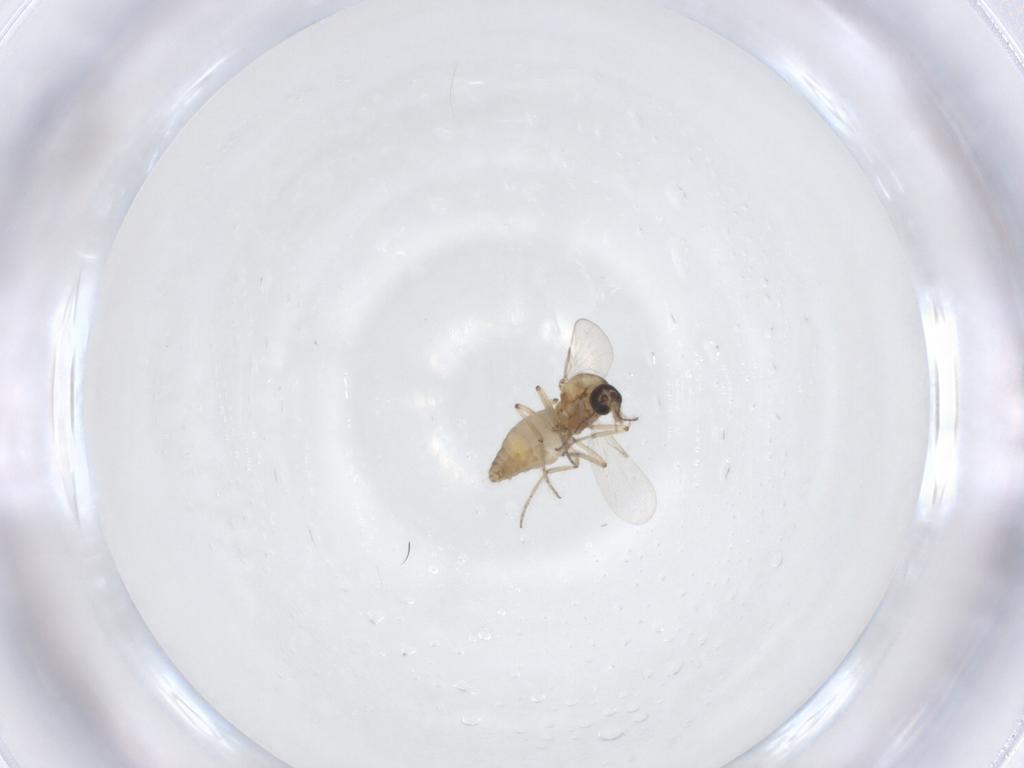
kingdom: Animalia
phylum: Arthropoda
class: Insecta
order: Diptera
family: Ceratopogonidae
